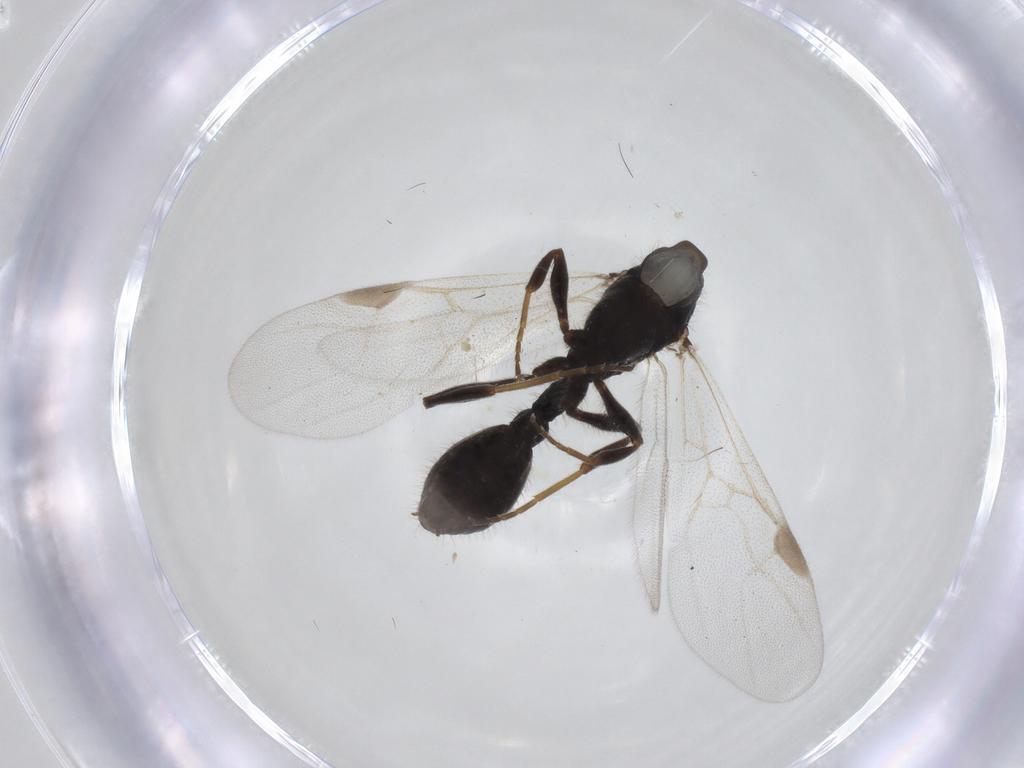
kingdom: Animalia
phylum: Arthropoda
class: Insecta
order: Hymenoptera
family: Formicidae
